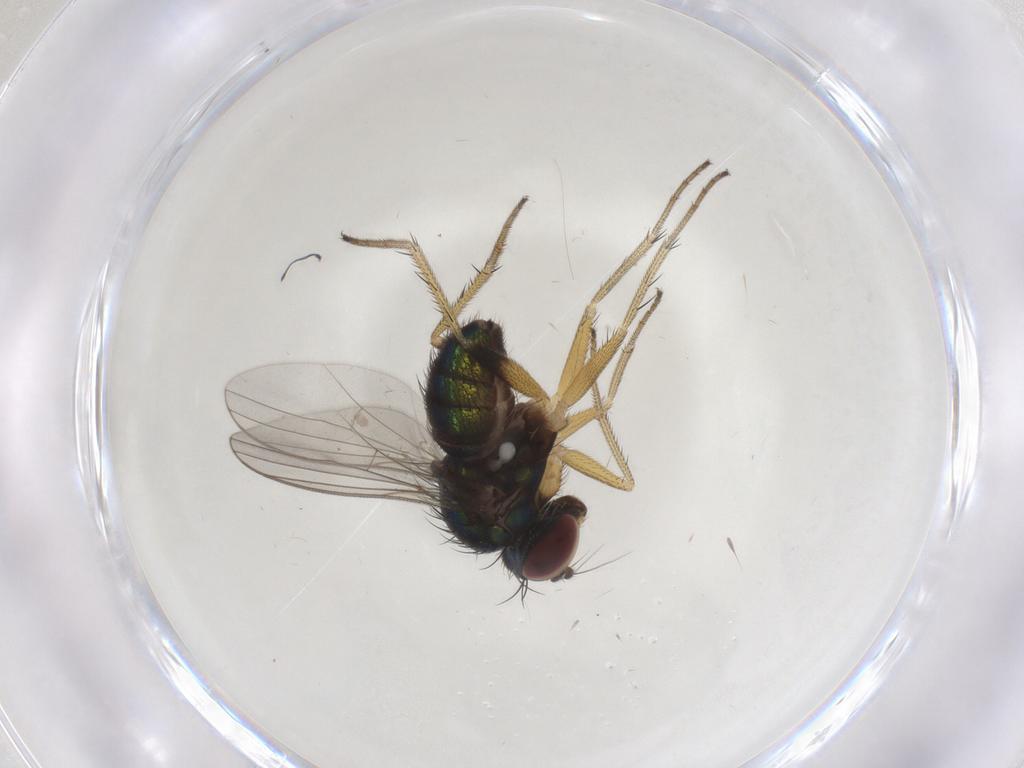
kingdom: Animalia
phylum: Arthropoda
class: Insecta
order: Diptera
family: Dolichopodidae
